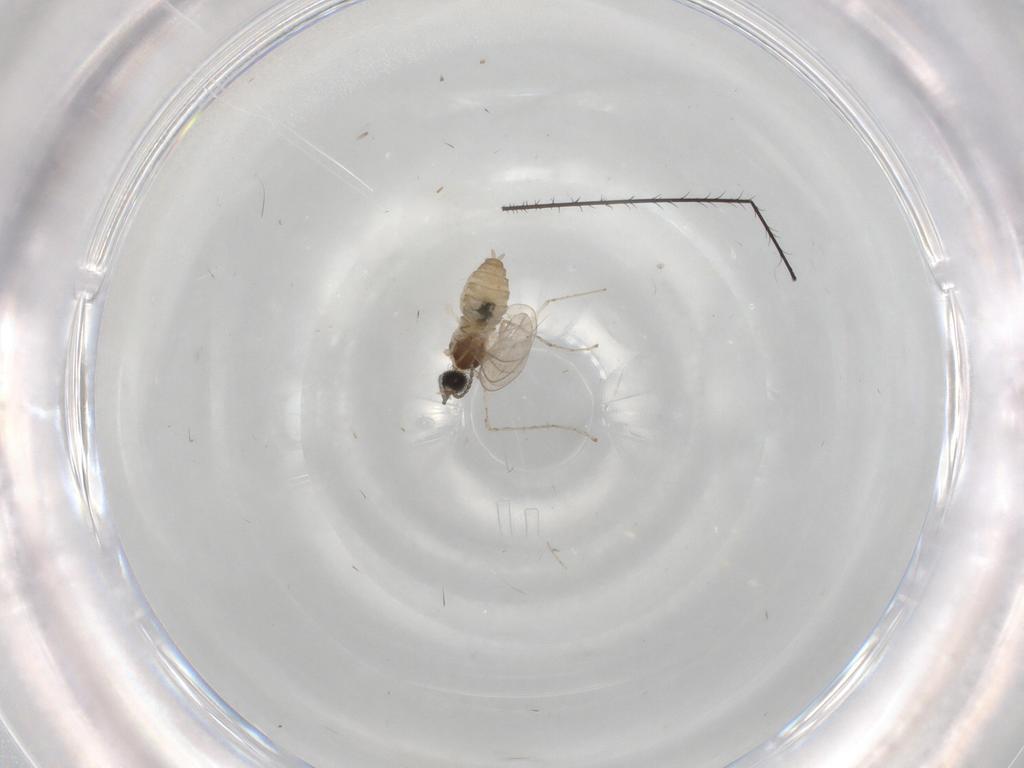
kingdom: Animalia
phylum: Arthropoda
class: Insecta
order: Diptera
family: Cecidomyiidae
